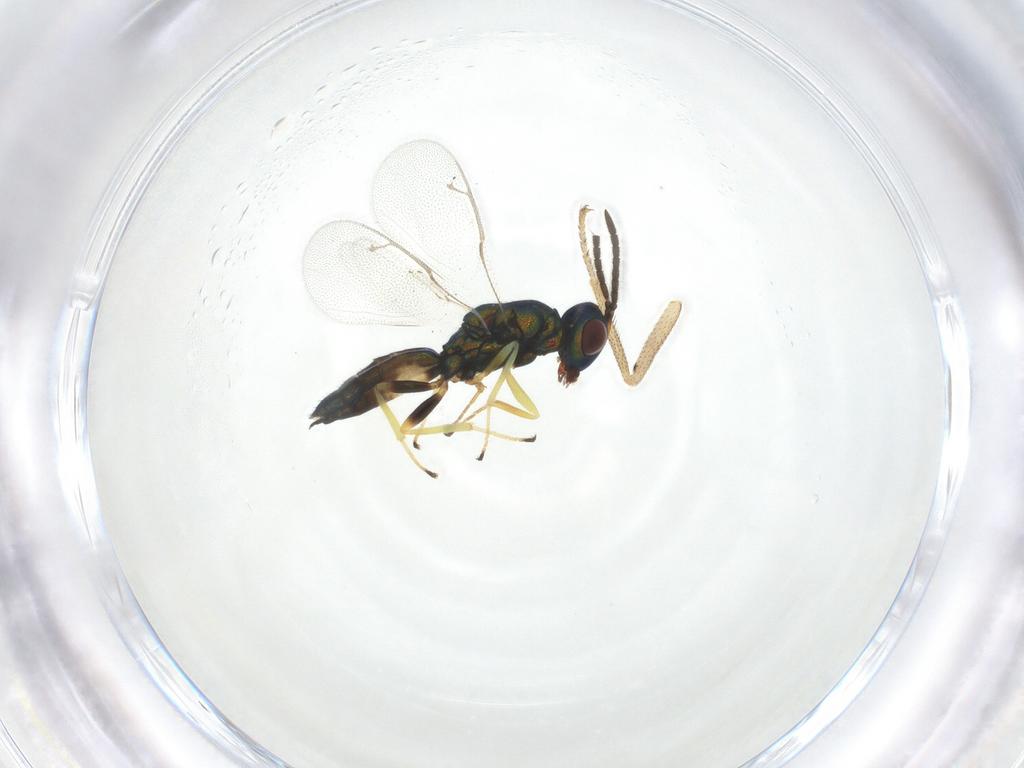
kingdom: Animalia
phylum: Arthropoda
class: Insecta
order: Hymenoptera
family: Pteromalidae
